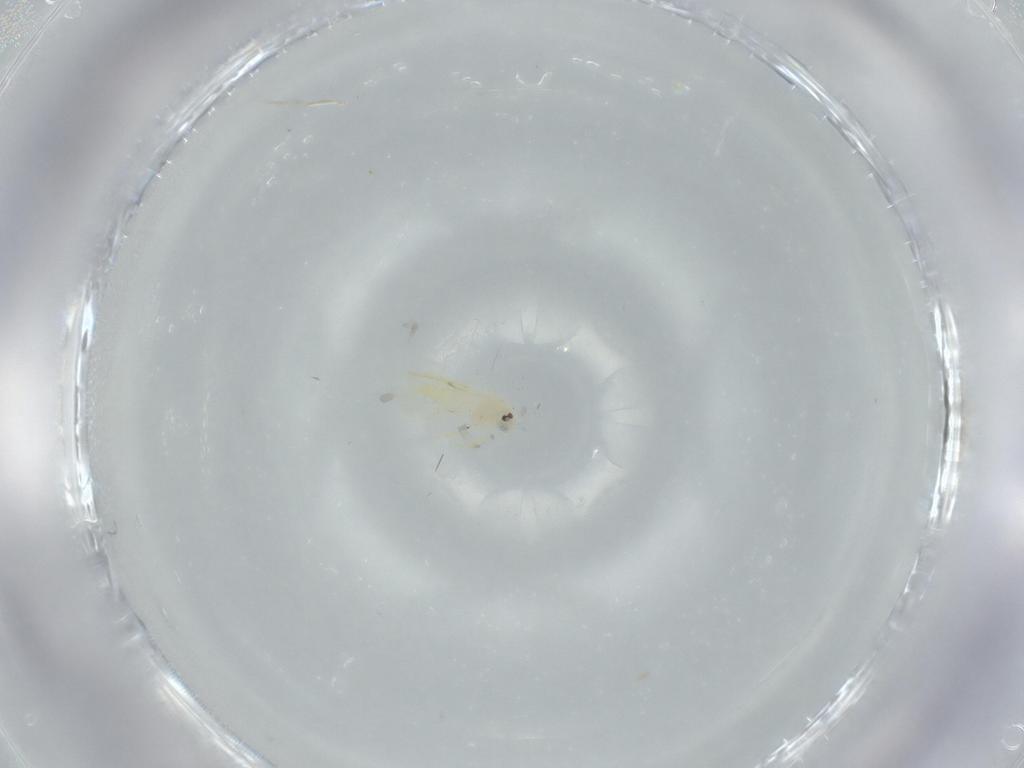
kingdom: Animalia
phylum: Arthropoda
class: Insecta
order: Hemiptera
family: Aleyrodidae
